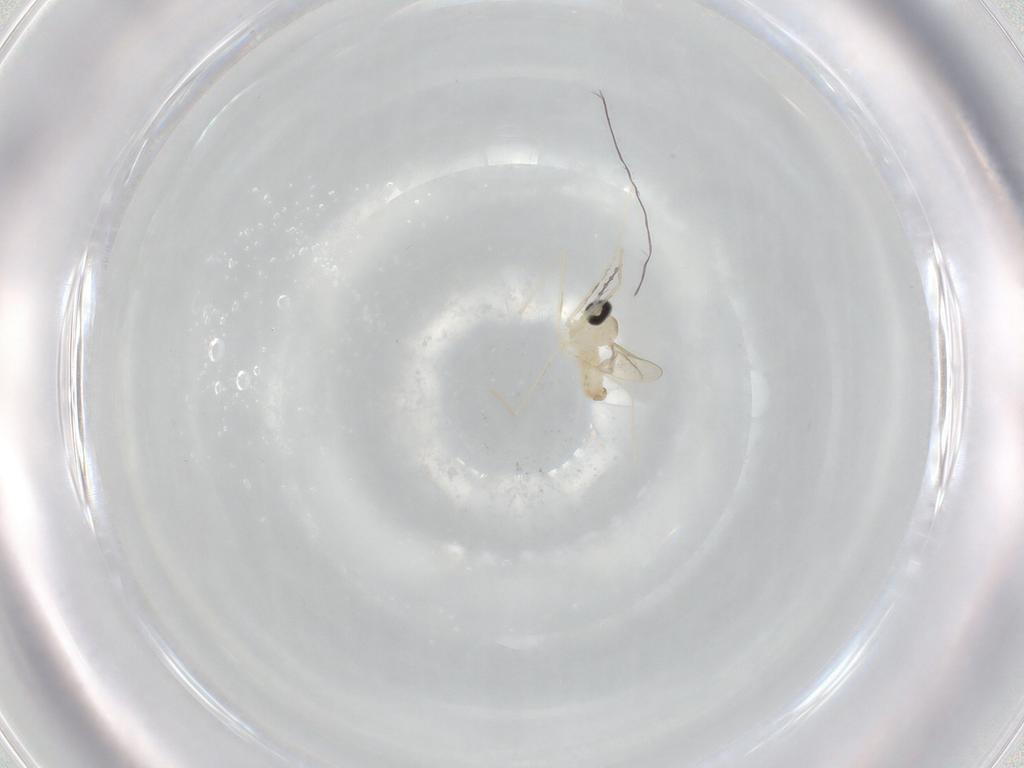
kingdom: Animalia
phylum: Arthropoda
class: Insecta
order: Diptera
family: Cecidomyiidae
